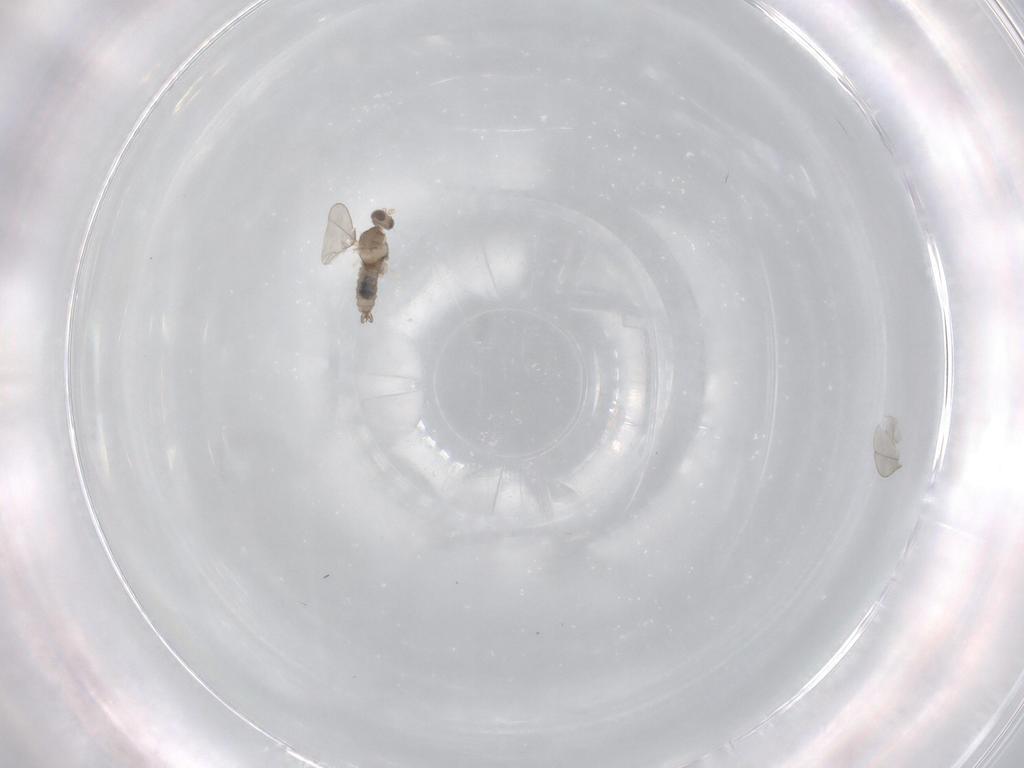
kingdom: Animalia
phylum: Arthropoda
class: Insecta
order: Diptera
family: Cecidomyiidae
